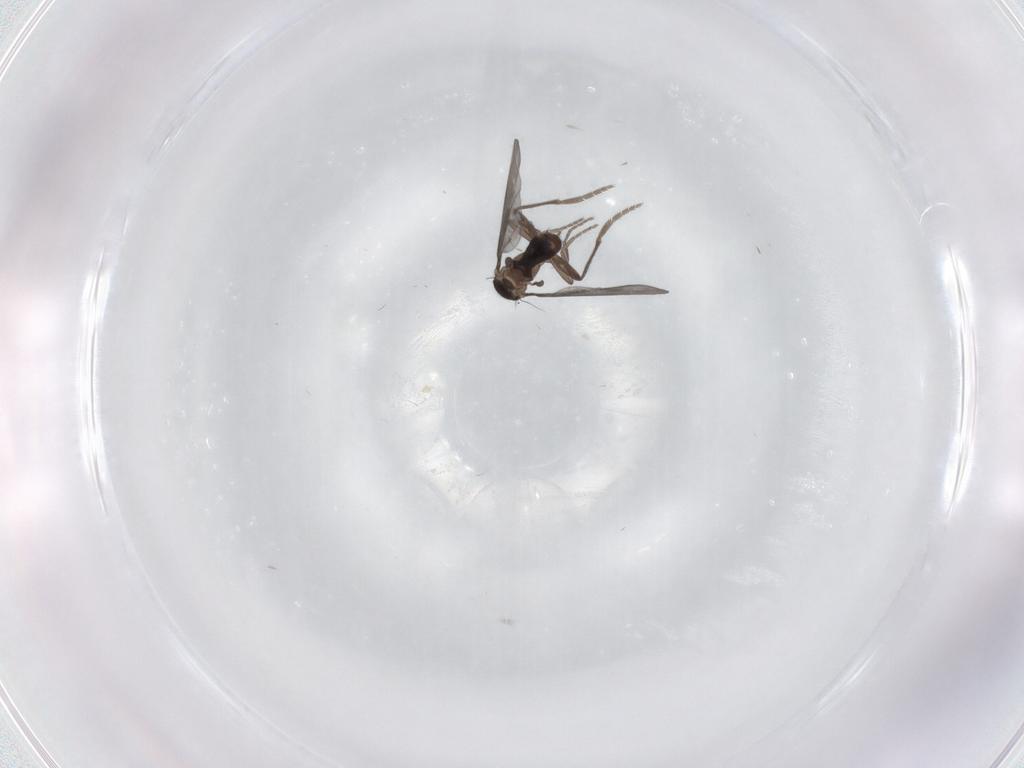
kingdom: Animalia
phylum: Arthropoda
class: Insecta
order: Diptera
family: Phoridae
